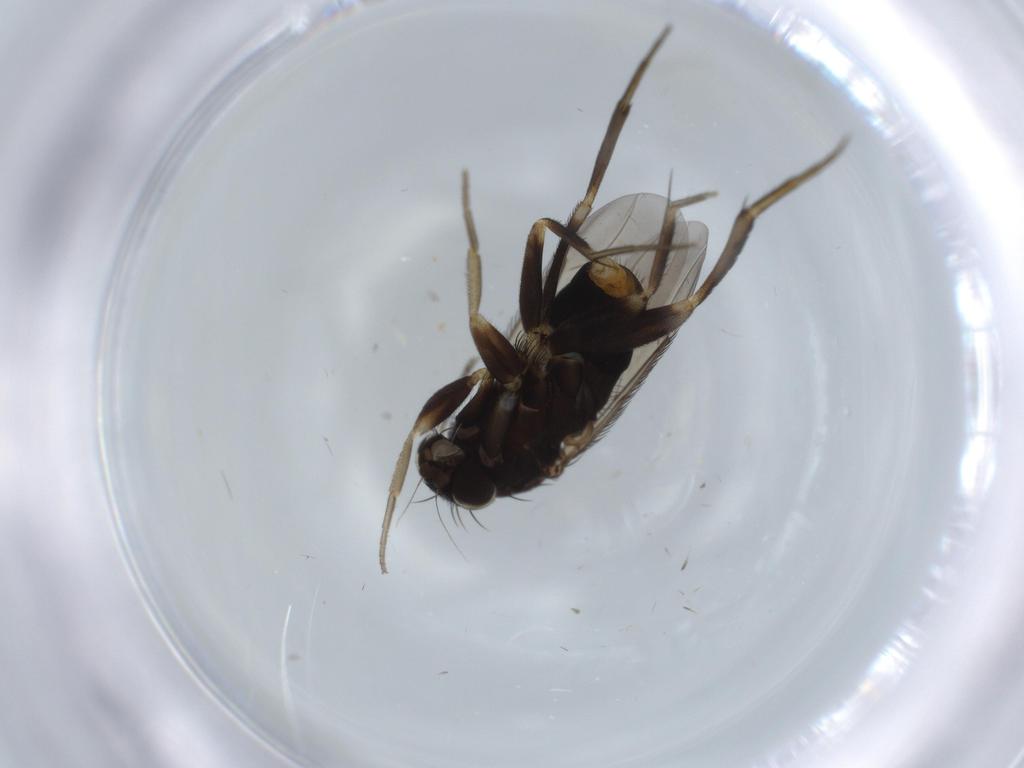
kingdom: Animalia
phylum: Arthropoda
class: Insecta
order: Diptera
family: Phoridae
